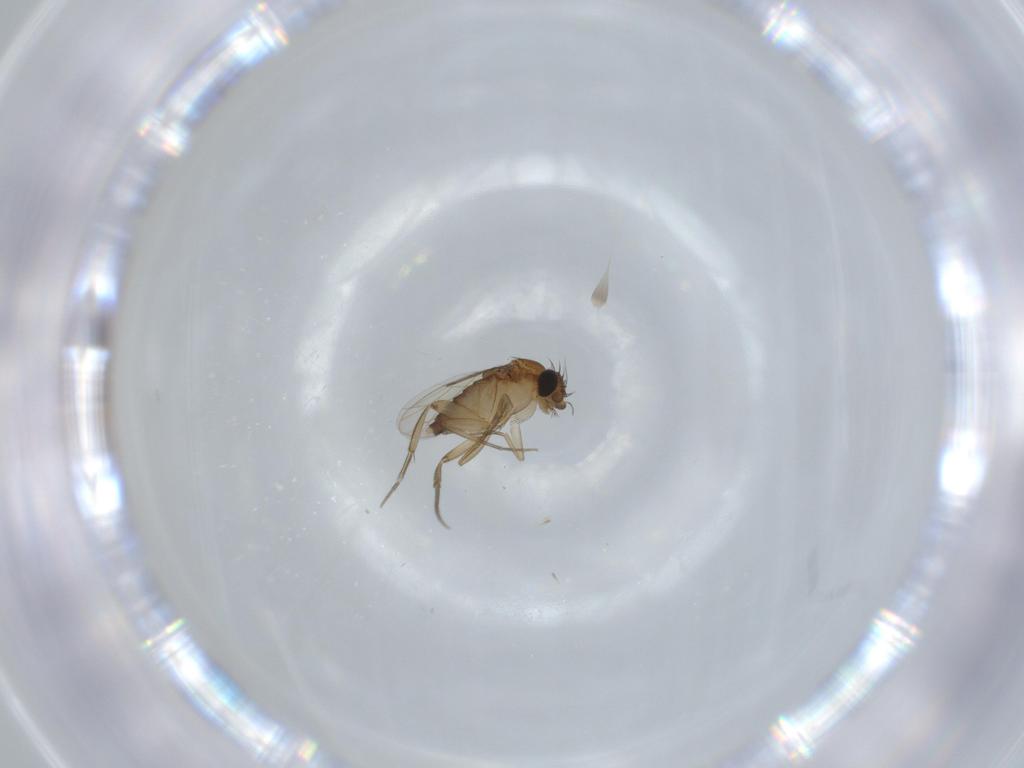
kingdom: Animalia
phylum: Arthropoda
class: Insecta
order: Diptera
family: Phoridae
